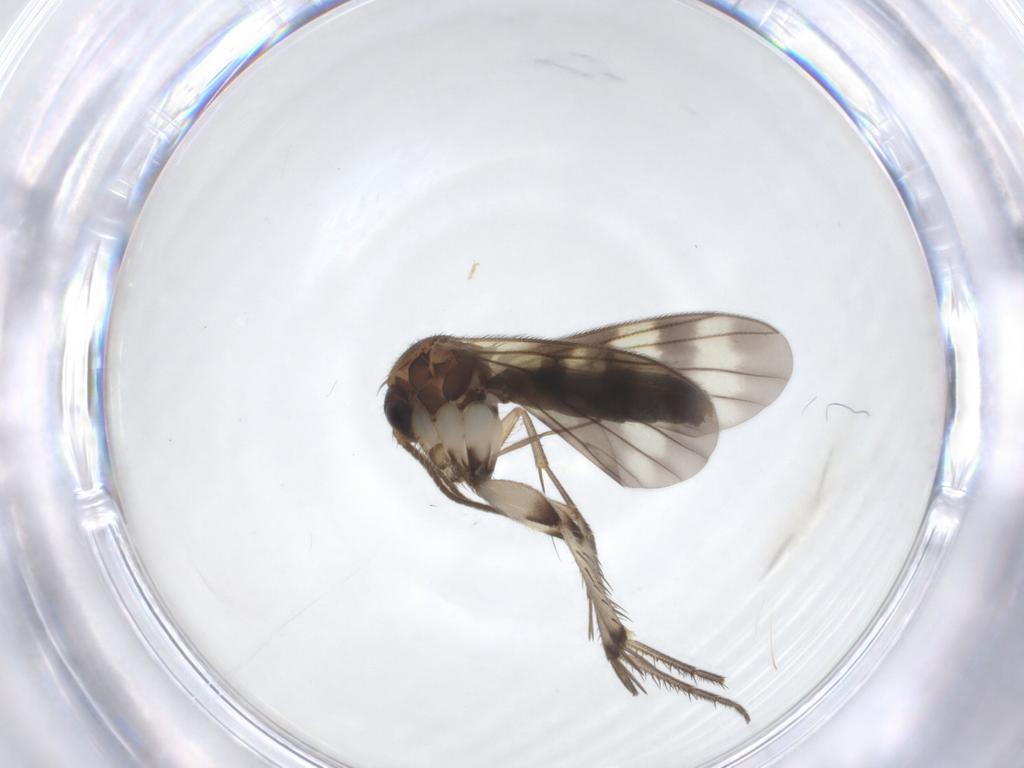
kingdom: Animalia
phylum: Arthropoda
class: Insecta
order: Diptera
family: Mycetophilidae
